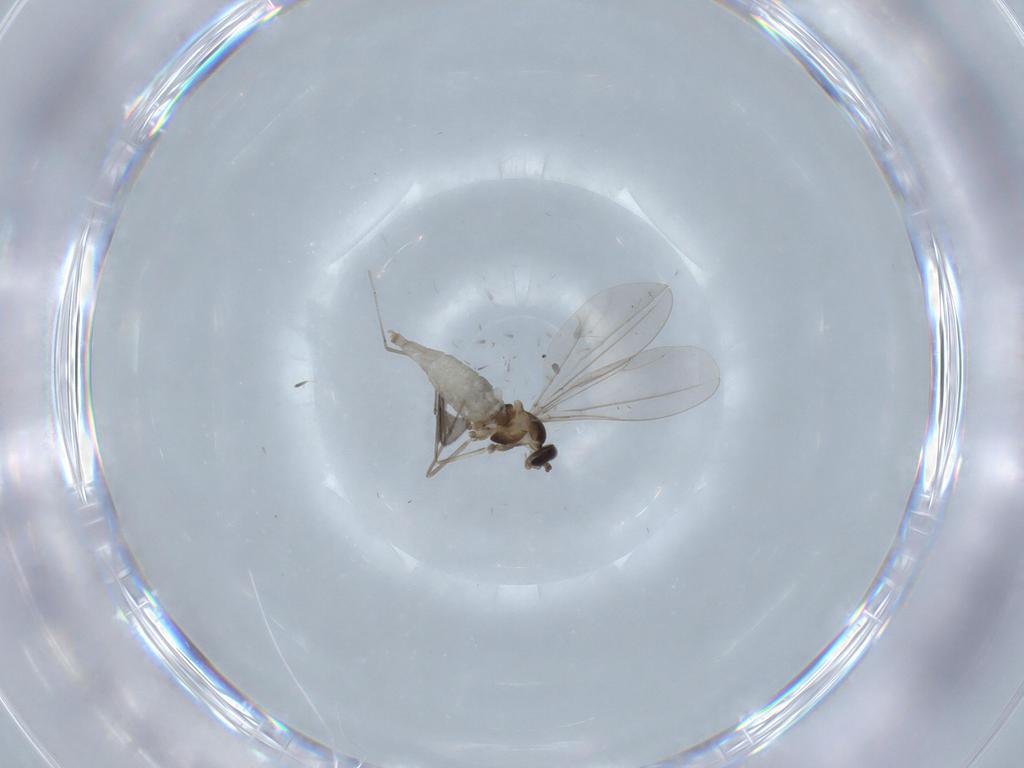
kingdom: Animalia
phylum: Arthropoda
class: Insecta
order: Diptera
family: Cecidomyiidae
